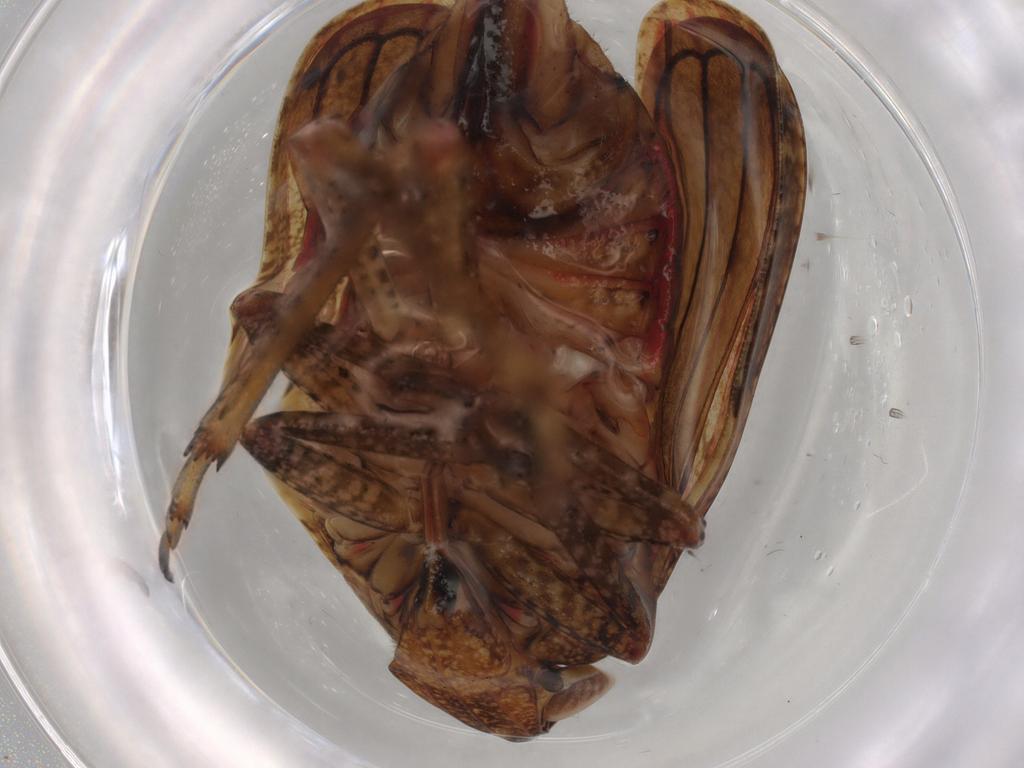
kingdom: Animalia
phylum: Arthropoda
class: Insecta
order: Hemiptera
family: Tropiduchidae
